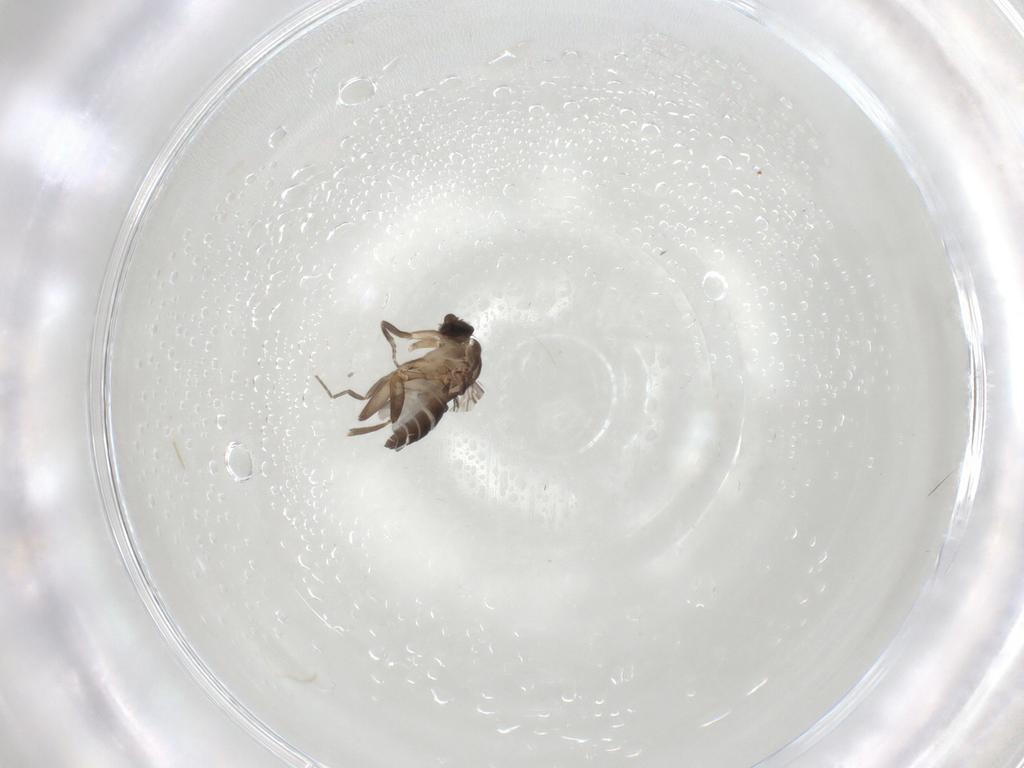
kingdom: Animalia
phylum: Arthropoda
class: Insecta
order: Diptera
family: Phoridae
